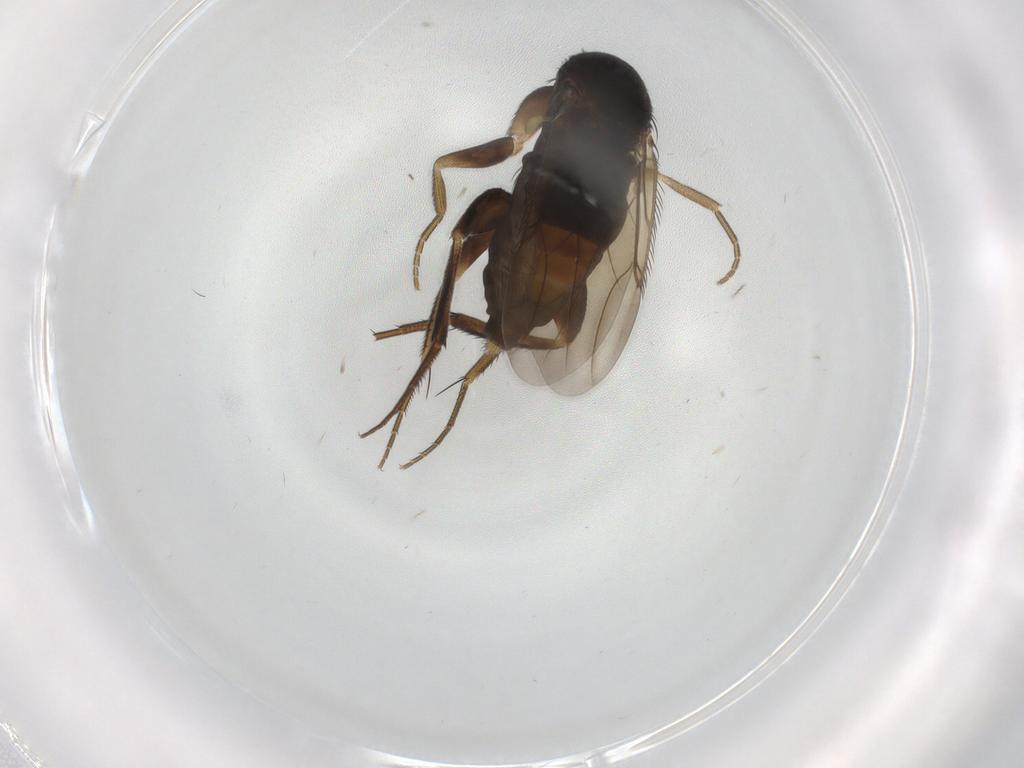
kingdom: Animalia
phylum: Arthropoda
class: Insecta
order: Diptera
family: Phoridae
